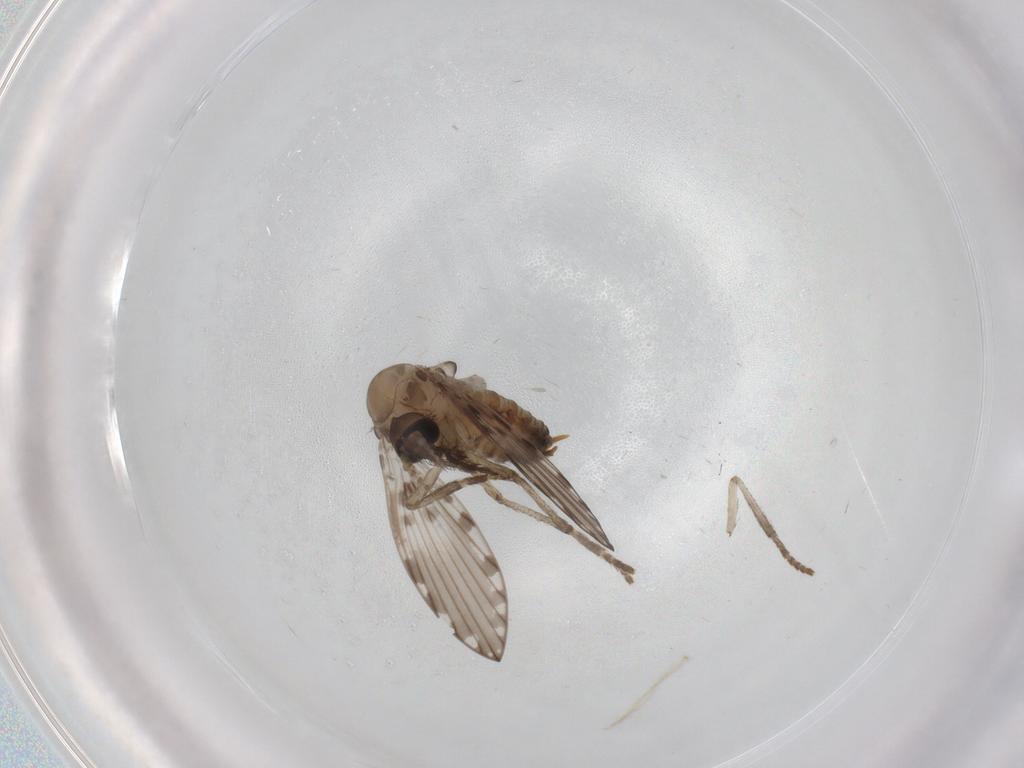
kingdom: Animalia
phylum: Arthropoda
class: Insecta
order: Diptera
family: Psychodidae
